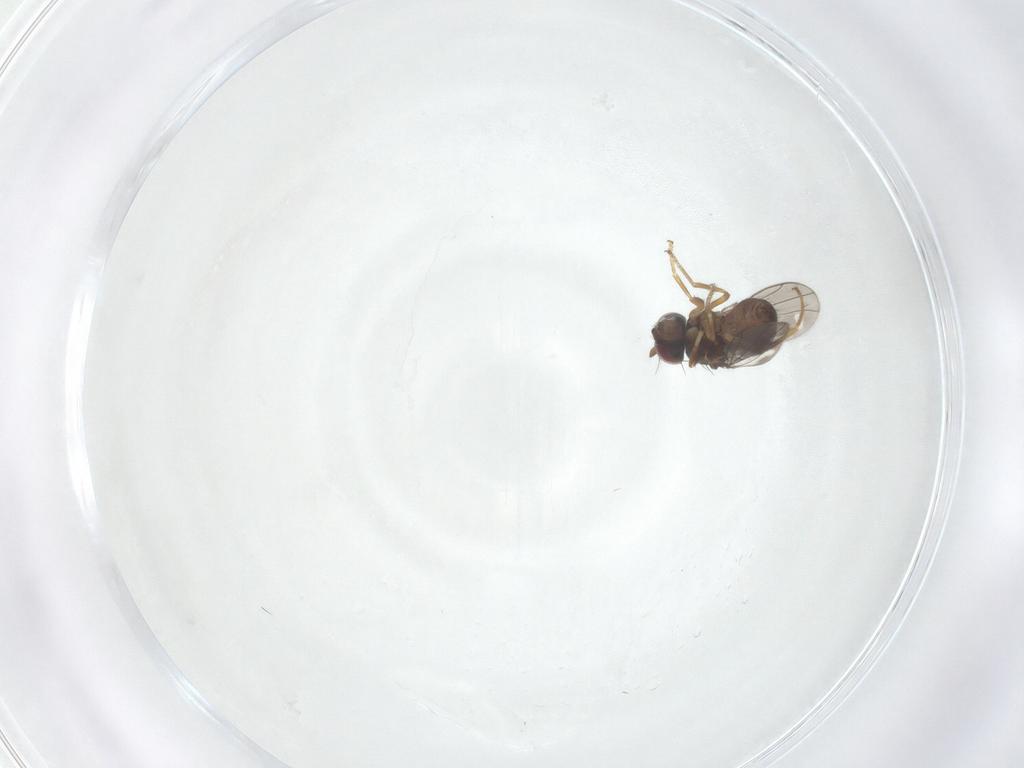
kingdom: Animalia
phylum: Arthropoda
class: Insecta
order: Diptera
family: Ephydridae
